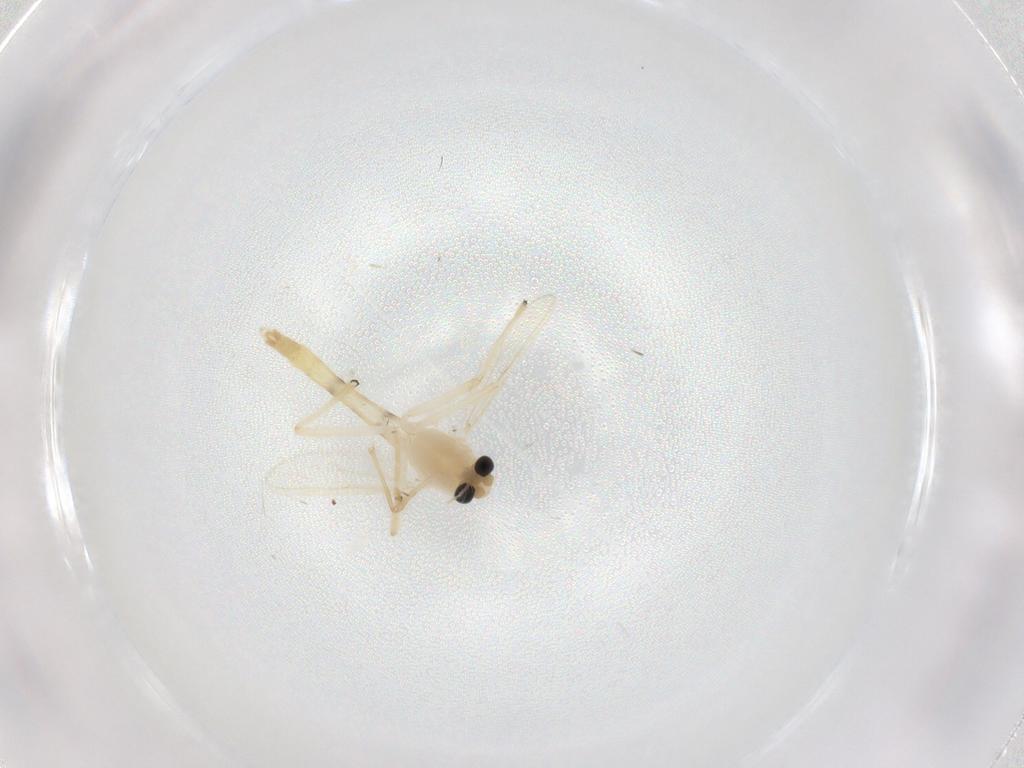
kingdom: Animalia
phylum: Arthropoda
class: Insecta
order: Diptera
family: Chironomidae
